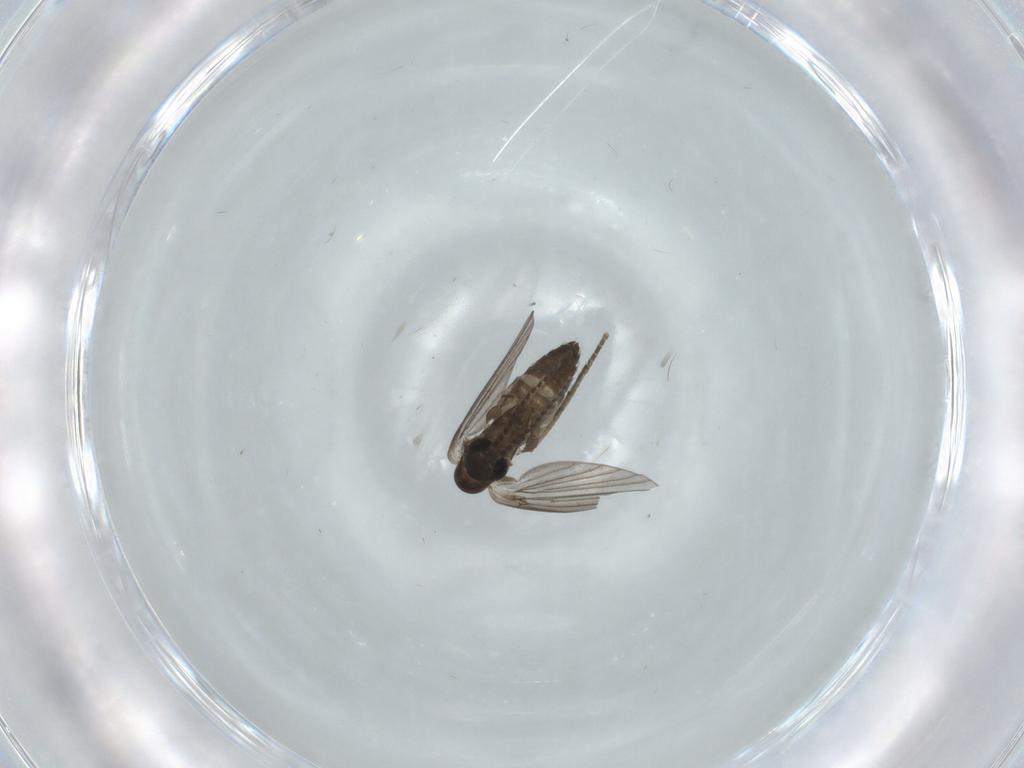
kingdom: Animalia
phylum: Arthropoda
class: Insecta
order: Diptera
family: Cecidomyiidae
